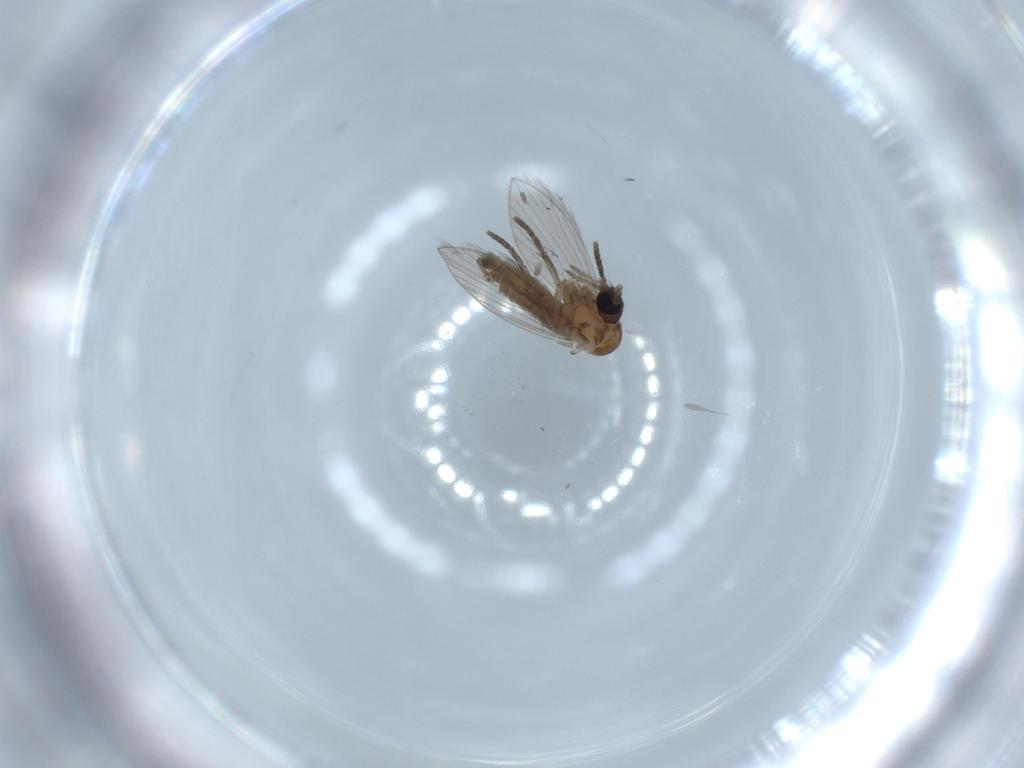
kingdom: Animalia
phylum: Arthropoda
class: Insecta
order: Diptera
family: Psychodidae
